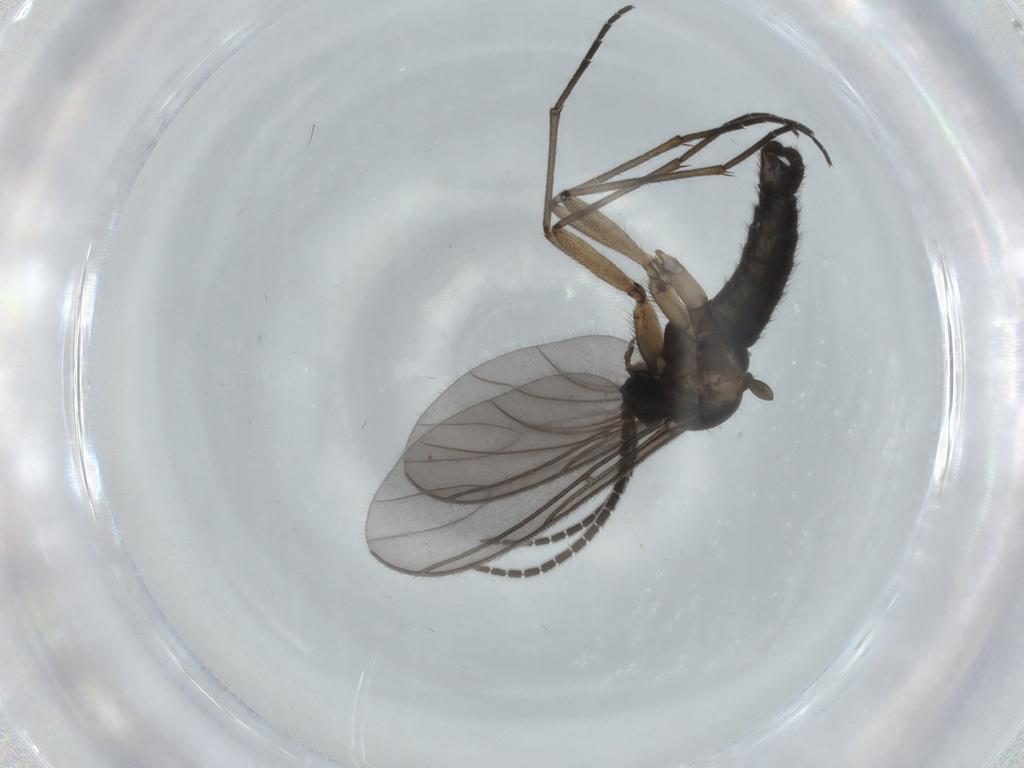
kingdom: Animalia
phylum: Arthropoda
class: Insecta
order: Diptera
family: Sciaridae
